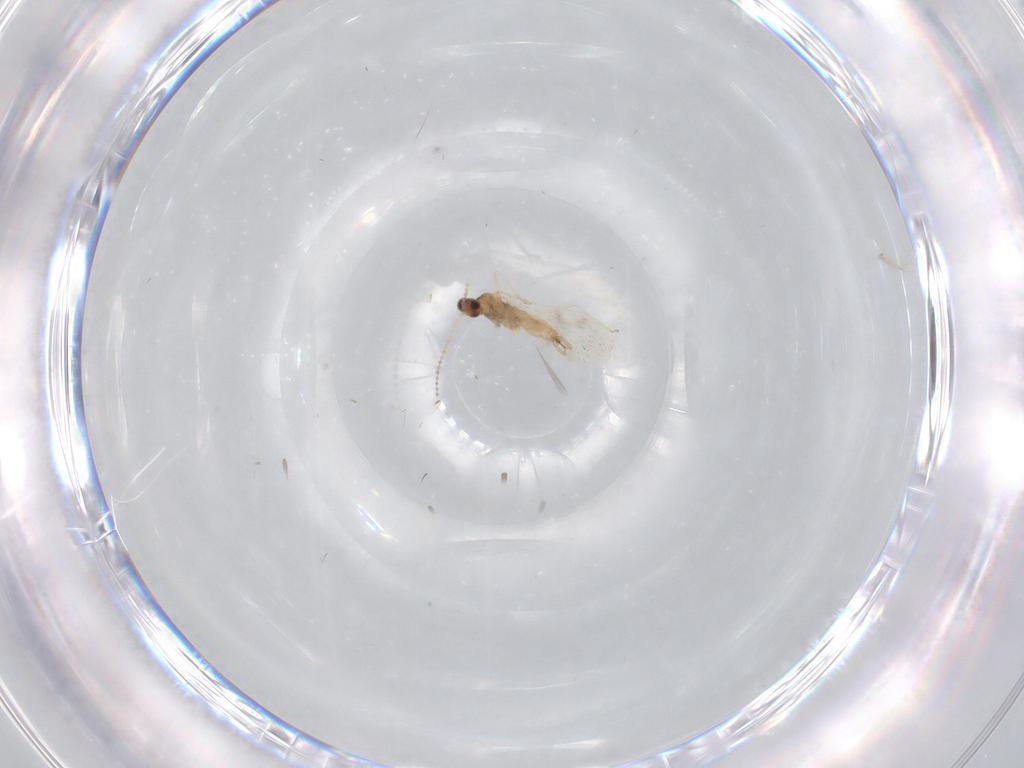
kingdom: Animalia
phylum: Arthropoda
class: Insecta
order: Diptera
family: Cecidomyiidae
